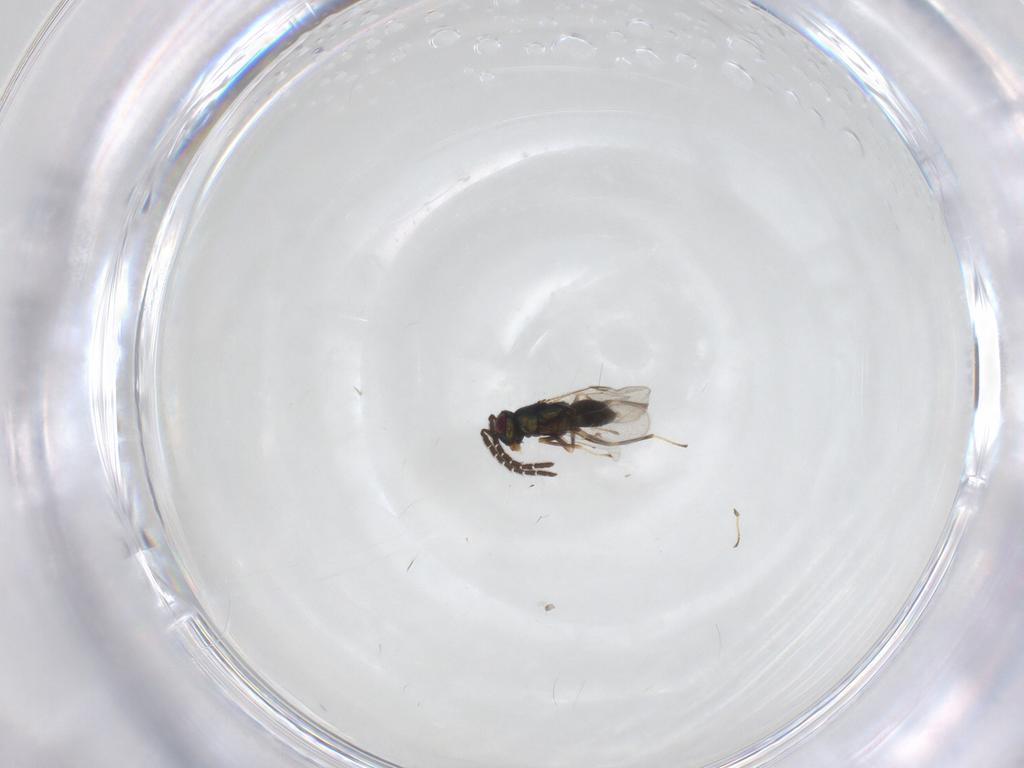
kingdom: Animalia
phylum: Arthropoda
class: Insecta
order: Hymenoptera
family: Encyrtidae
